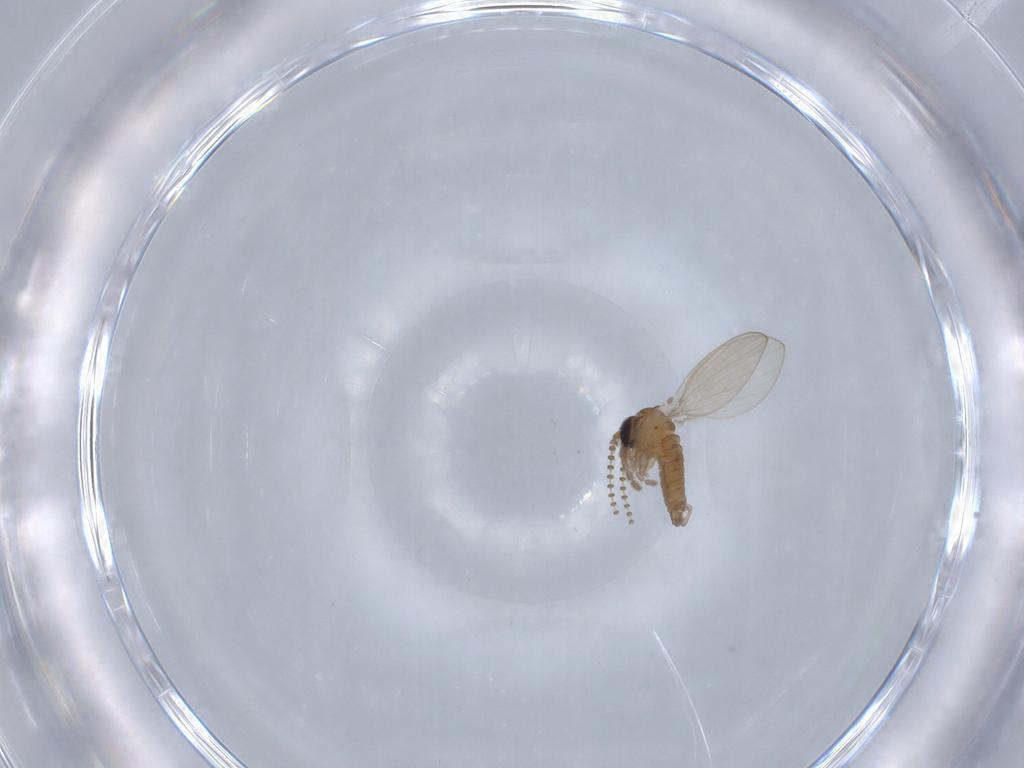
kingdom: Animalia
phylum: Arthropoda
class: Insecta
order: Diptera
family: Psychodidae
